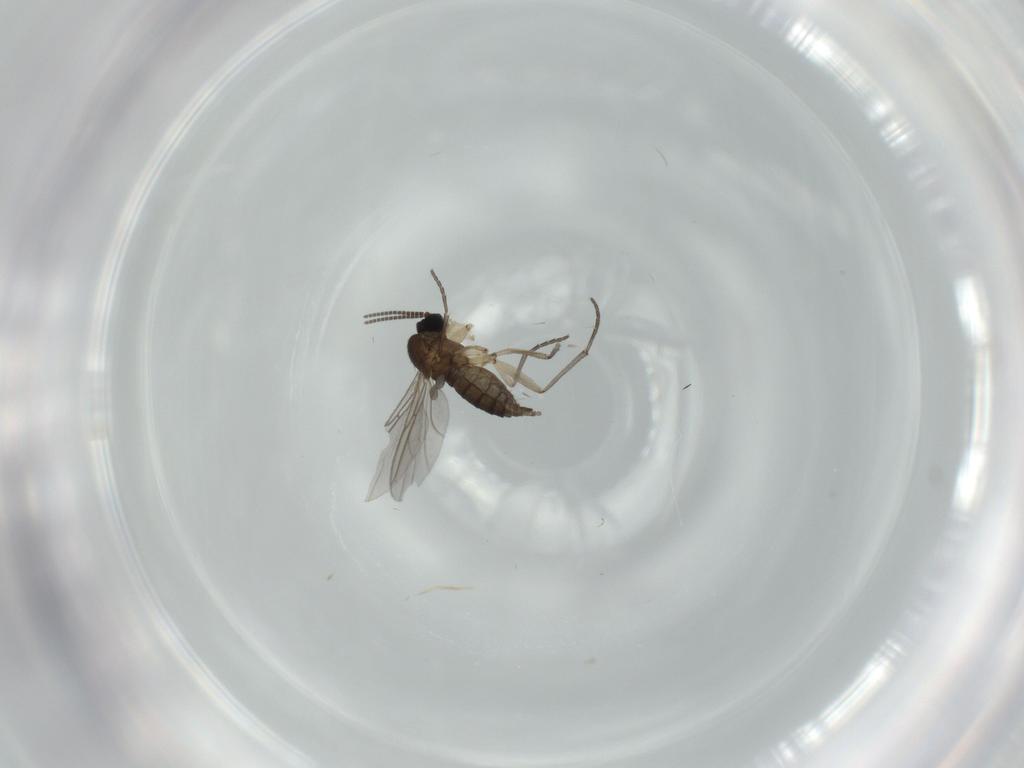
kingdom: Animalia
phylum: Arthropoda
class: Insecta
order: Diptera
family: Sciaridae
